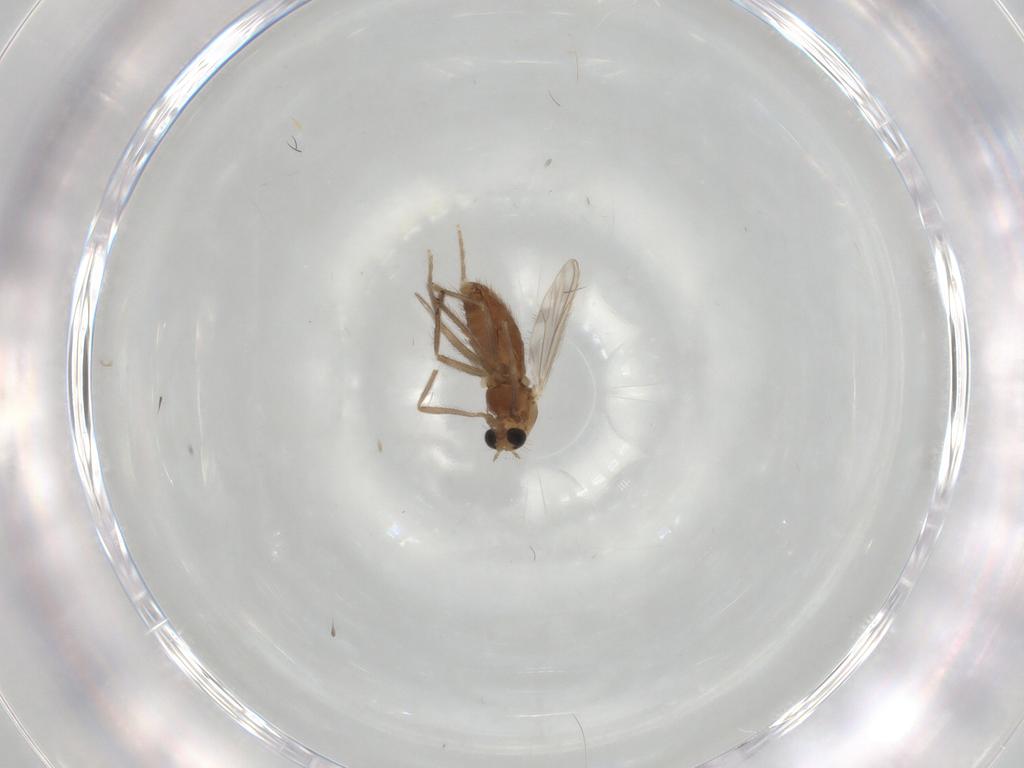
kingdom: Animalia
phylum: Arthropoda
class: Insecta
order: Diptera
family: Chironomidae
